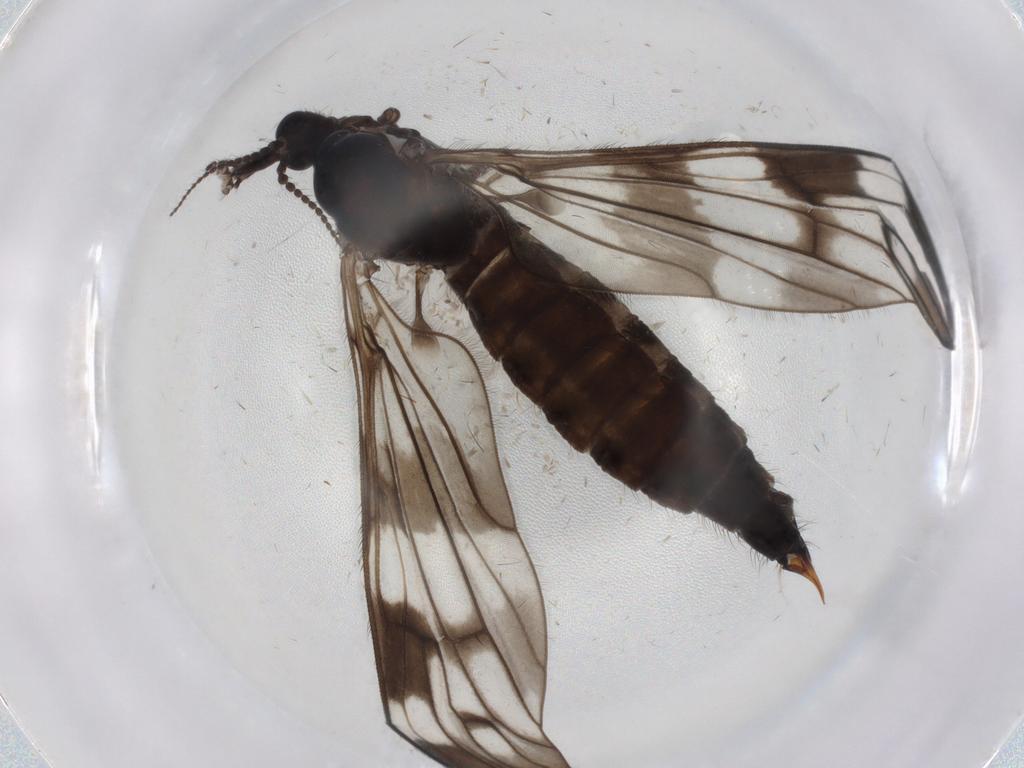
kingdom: Animalia
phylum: Arthropoda
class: Insecta
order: Diptera
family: Limoniidae
